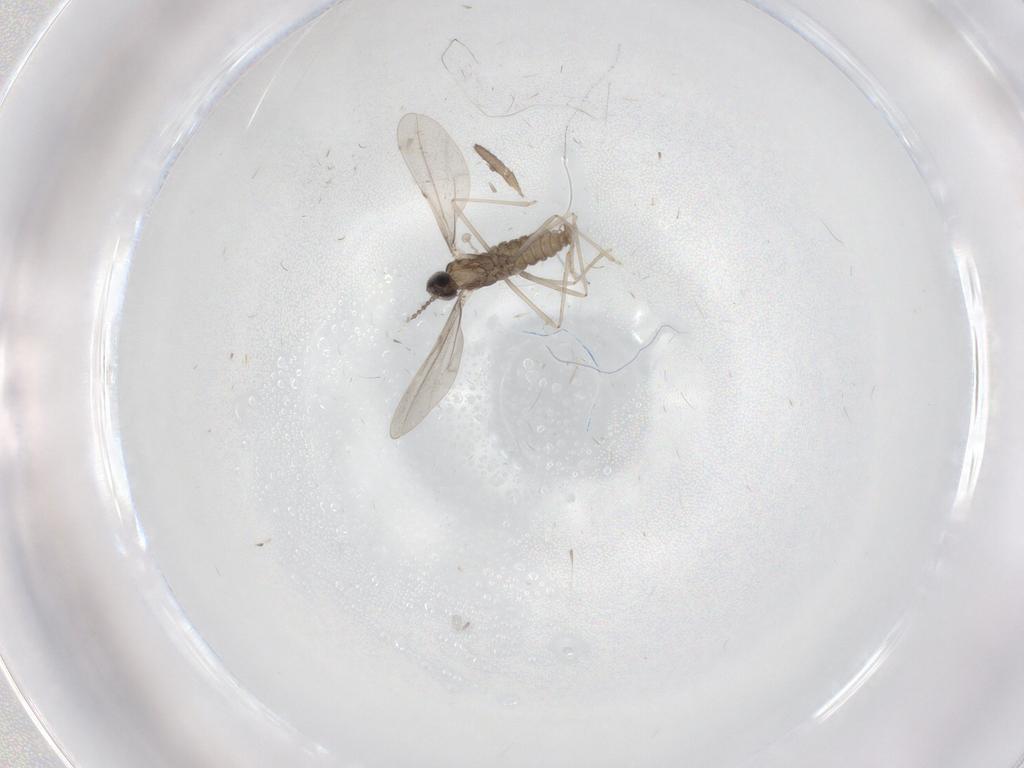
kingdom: Animalia
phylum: Arthropoda
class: Insecta
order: Diptera
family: Cecidomyiidae
